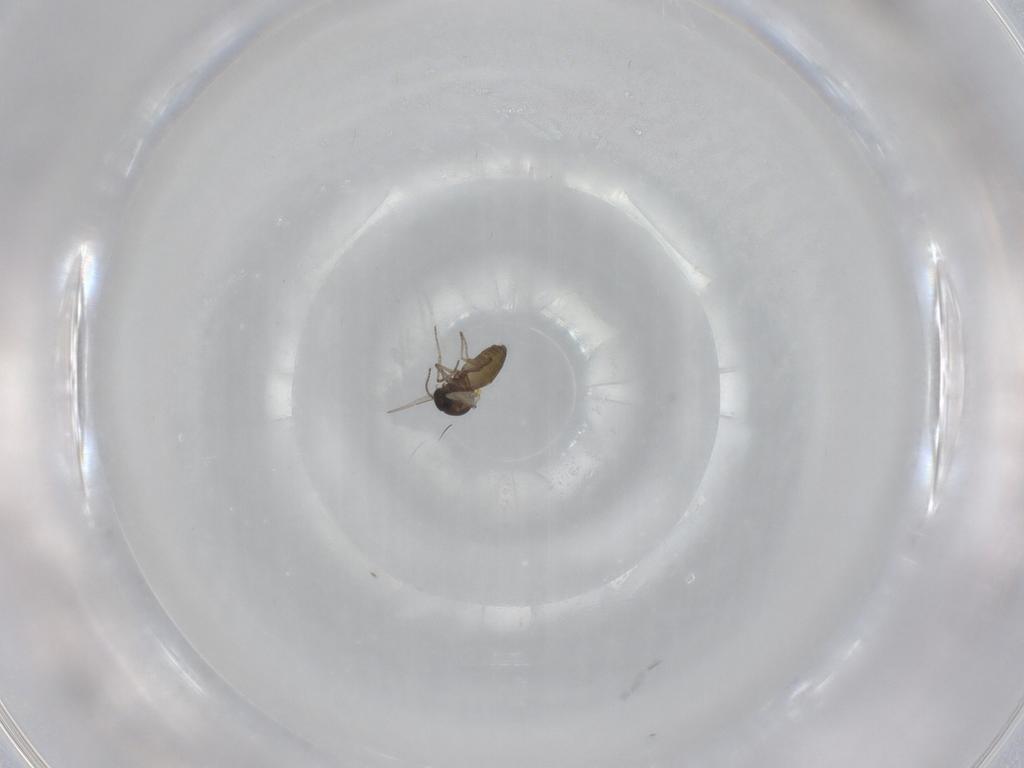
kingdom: Animalia
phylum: Arthropoda
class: Insecta
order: Diptera
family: Ceratopogonidae
